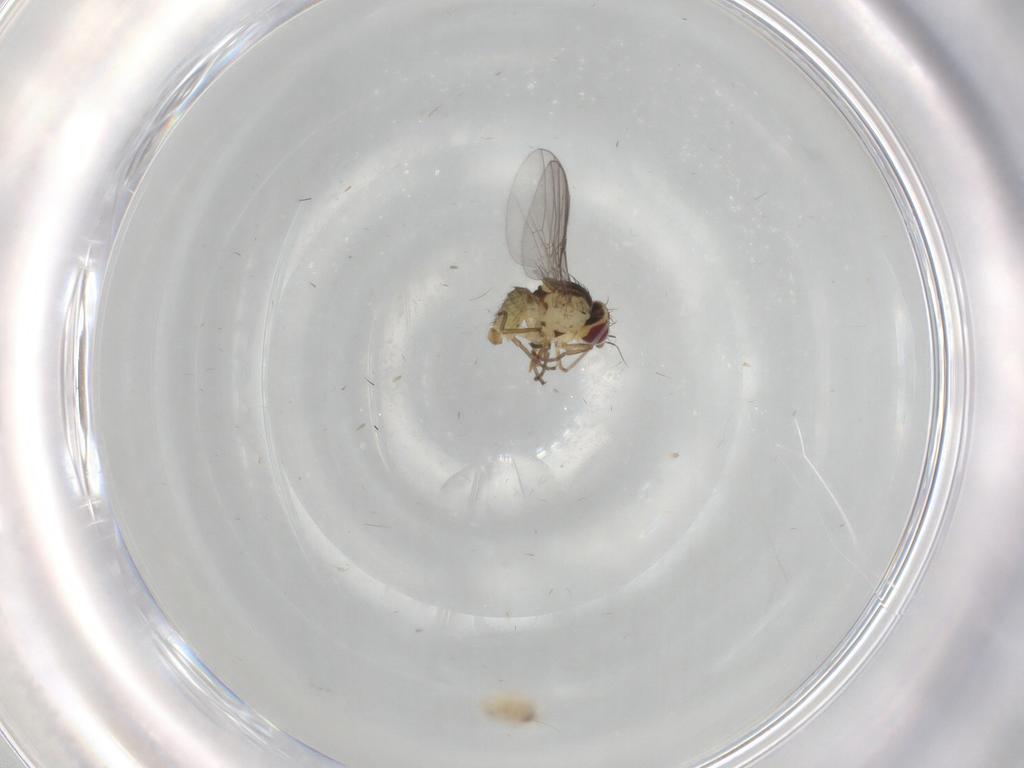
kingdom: Animalia
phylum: Arthropoda
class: Insecta
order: Diptera
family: Agromyzidae
